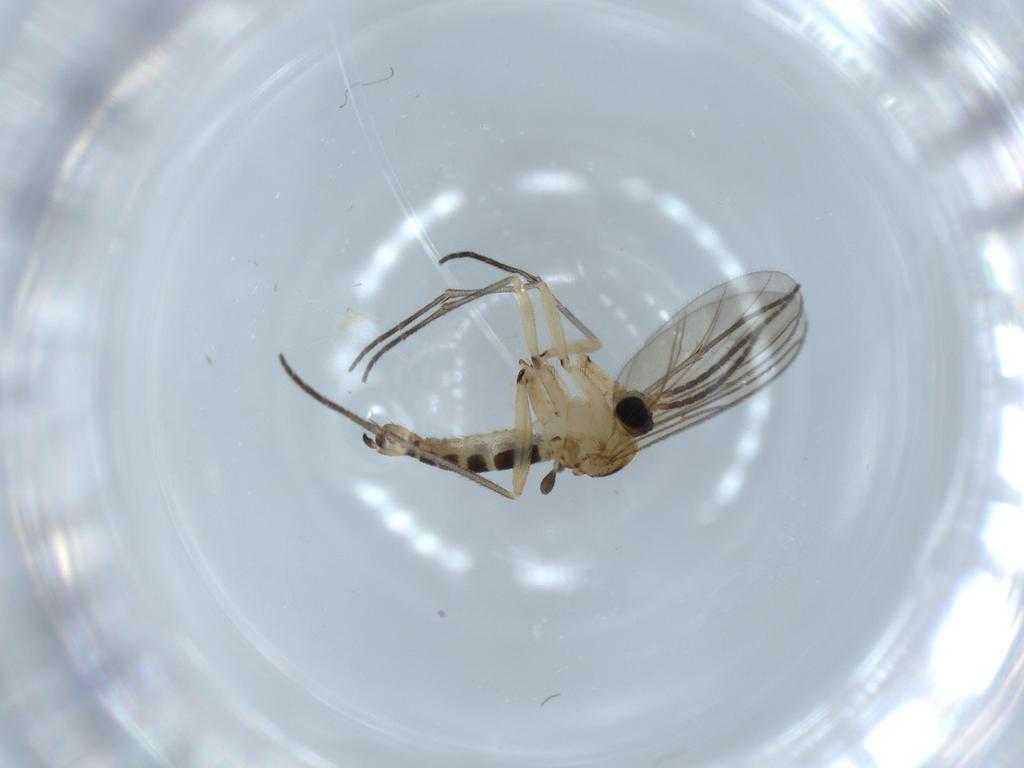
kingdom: Animalia
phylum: Arthropoda
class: Insecta
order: Diptera
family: Sciaridae
